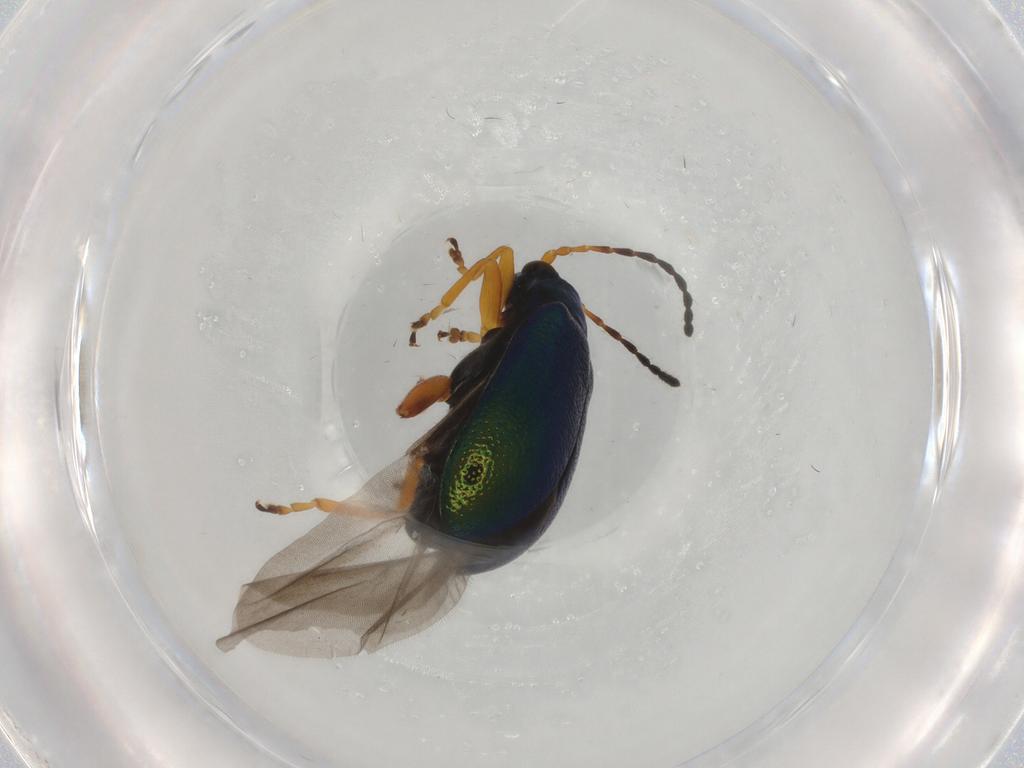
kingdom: Animalia
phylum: Arthropoda
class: Insecta
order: Coleoptera
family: Chrysomelidae
